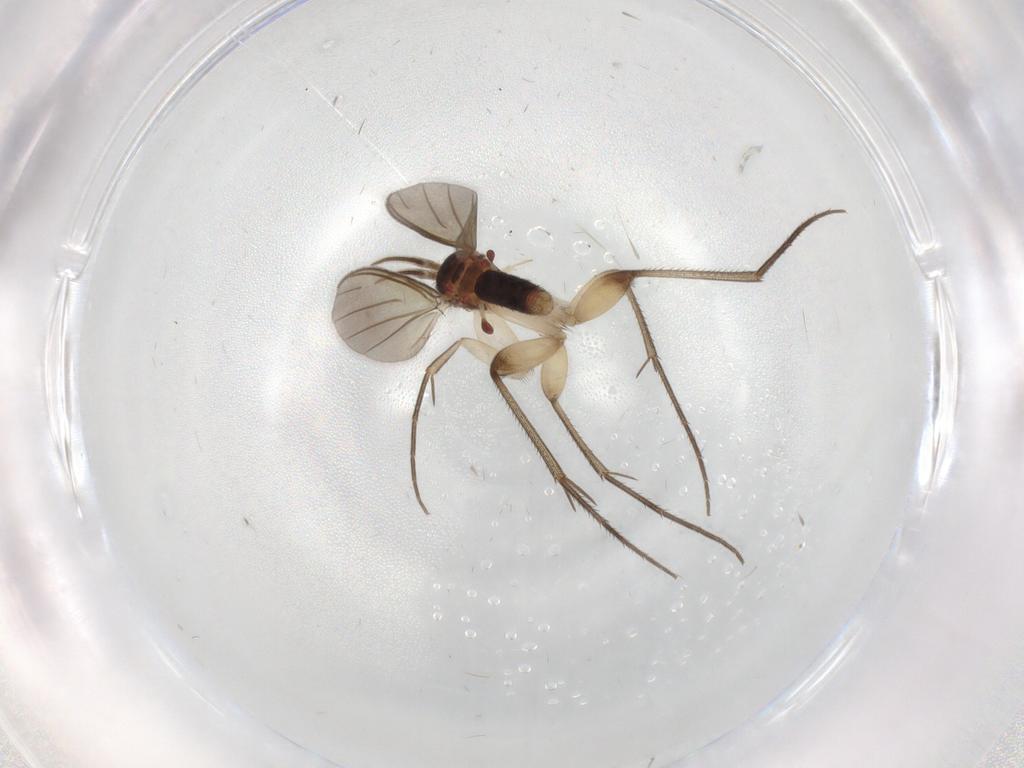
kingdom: Animalia
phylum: Arthropoda
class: Insecta
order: Diptera
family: Mycetophilidae
